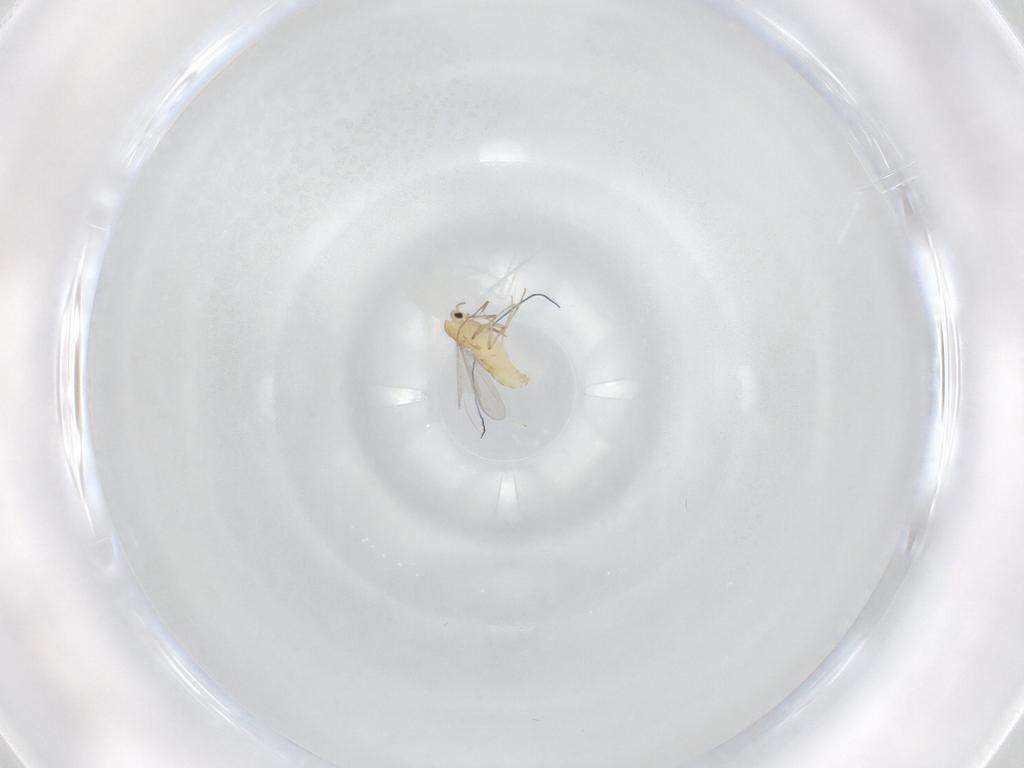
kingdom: Animalia
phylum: Arthropoda
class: Insecta
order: Diptera
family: Chironomidae
